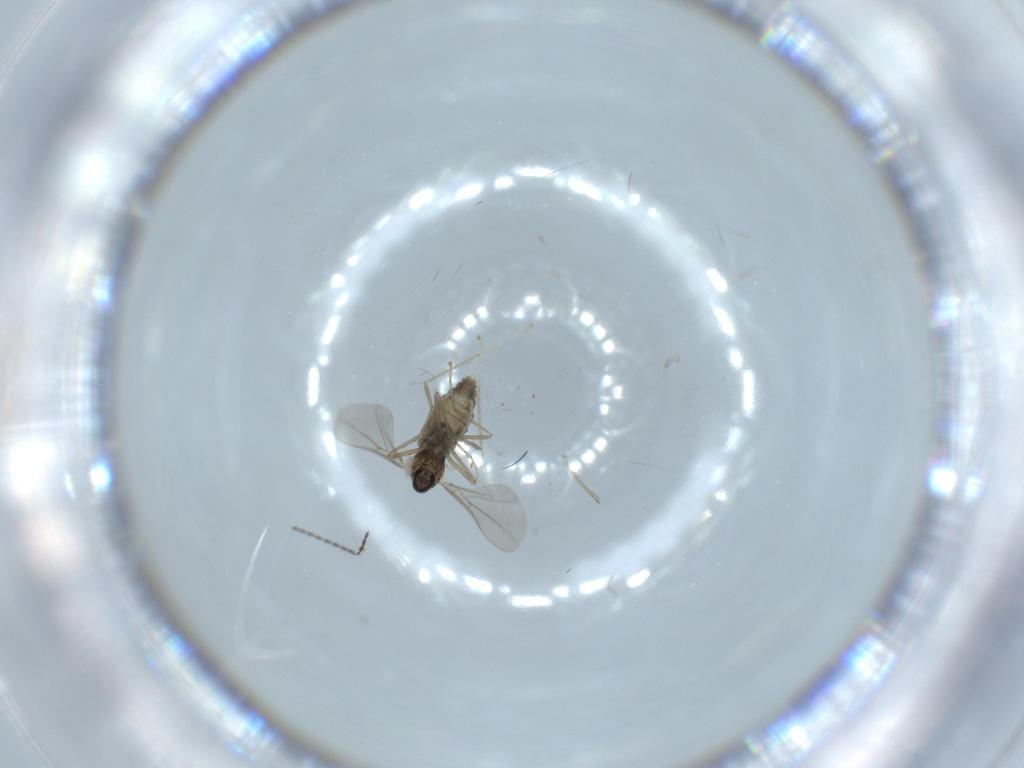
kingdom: Animalia
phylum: Arthropoda
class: Insecta
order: Diptera
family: Cecidomyiidae
